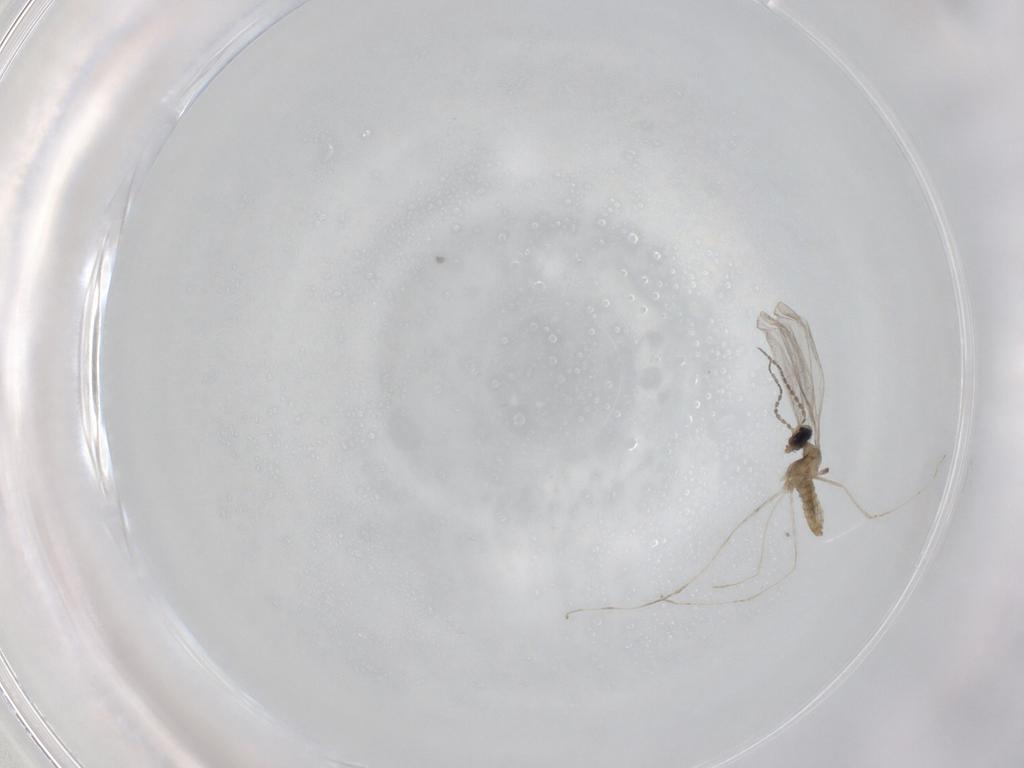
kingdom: Animalia
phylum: Arthropoda
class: Insecta
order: Diptera
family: Cecidomyiidae
